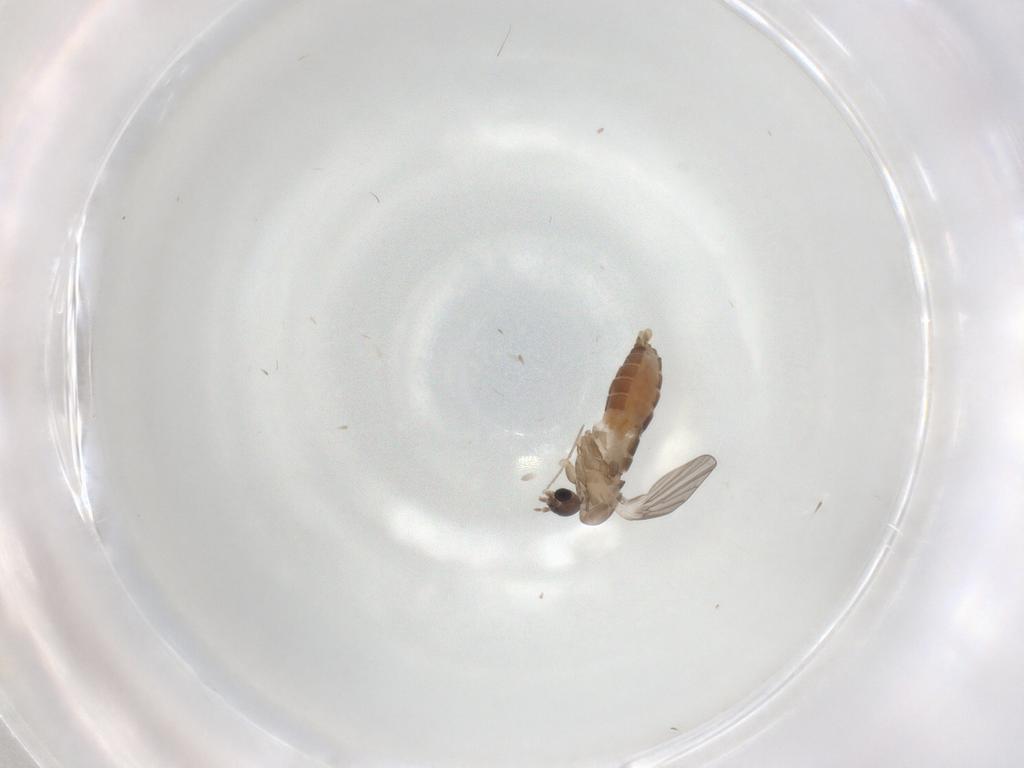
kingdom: Animalia
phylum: Arthropoda
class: Insecta
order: Diptera
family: Chironomidae
